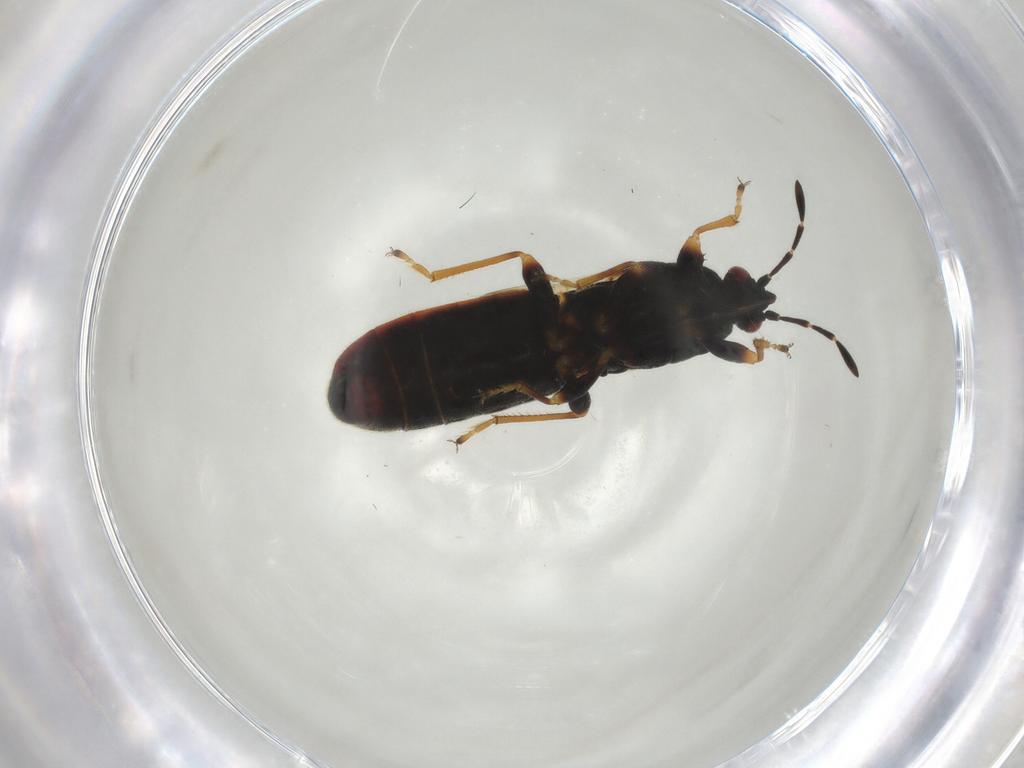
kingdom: Animalia
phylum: Arthropoda
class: Insecta
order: Hemiptera
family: Blissidae
